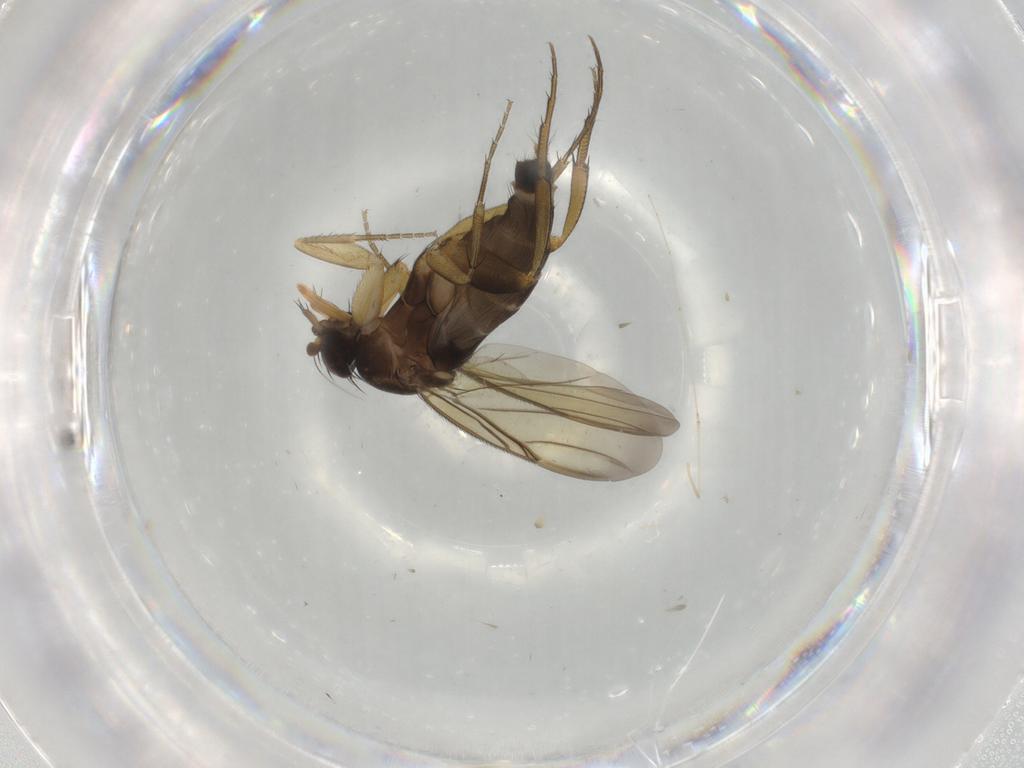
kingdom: Animalia
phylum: Arthropoda
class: Insecta
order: Diptera
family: Phoridae
